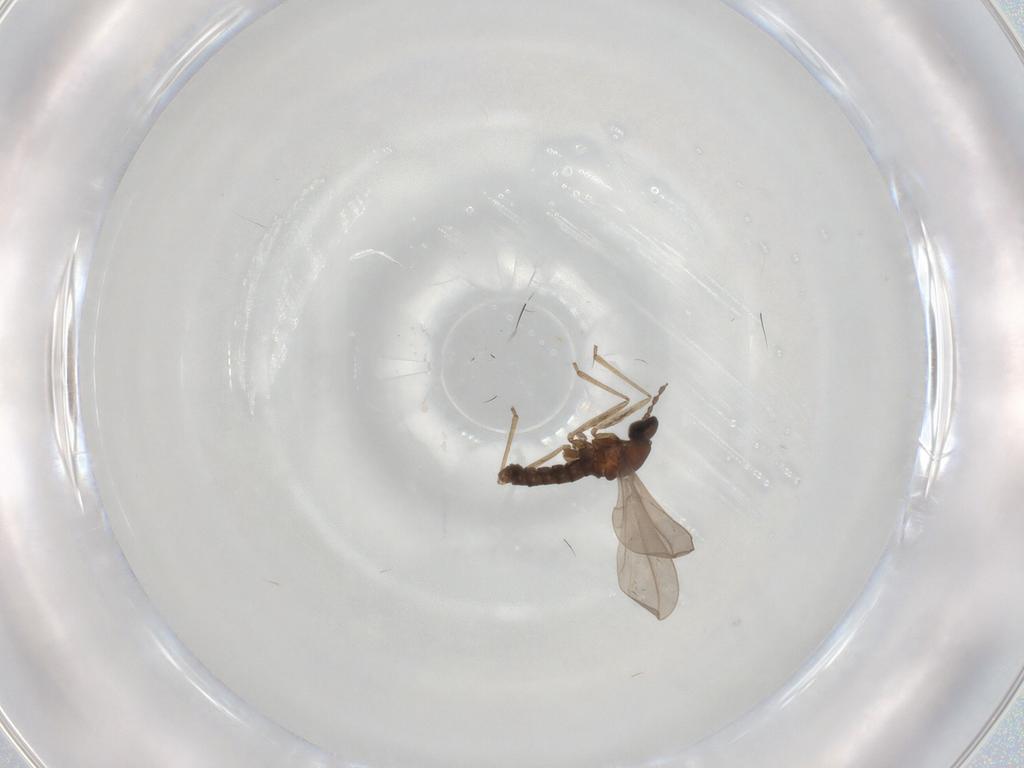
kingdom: Animalia
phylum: Arthropoda
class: Insecta
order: Diptera
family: Cecidomyiidae
